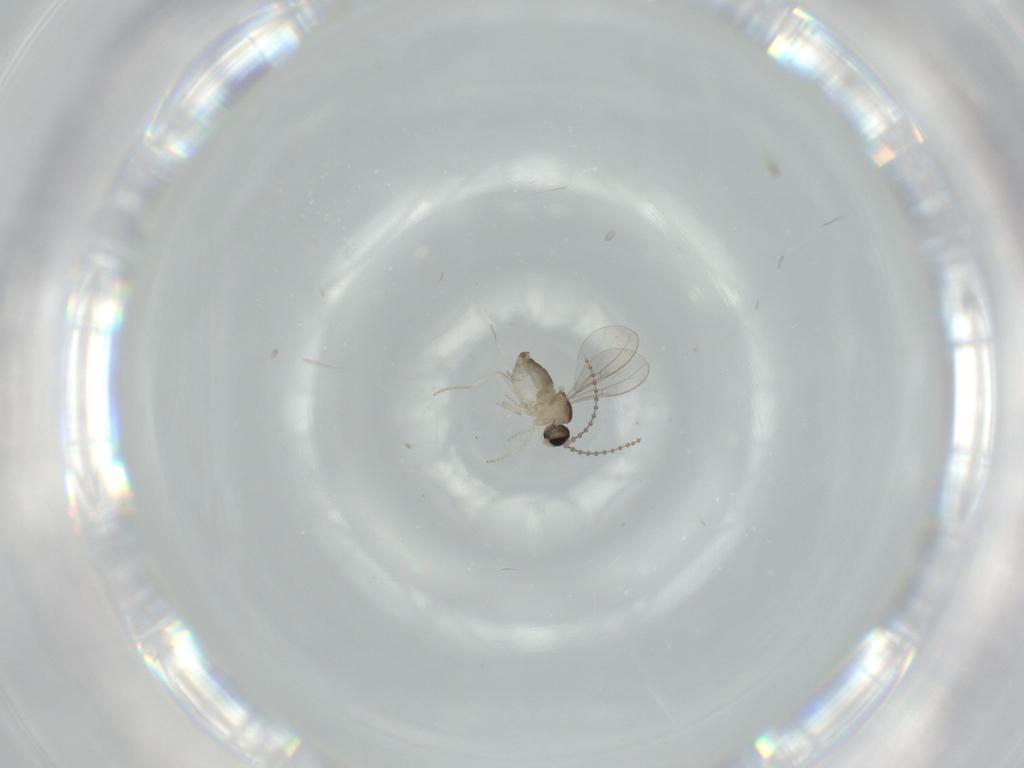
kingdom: Animalia
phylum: Arthropoda
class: Insecta
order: Diptera
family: Cecidomyiidae
